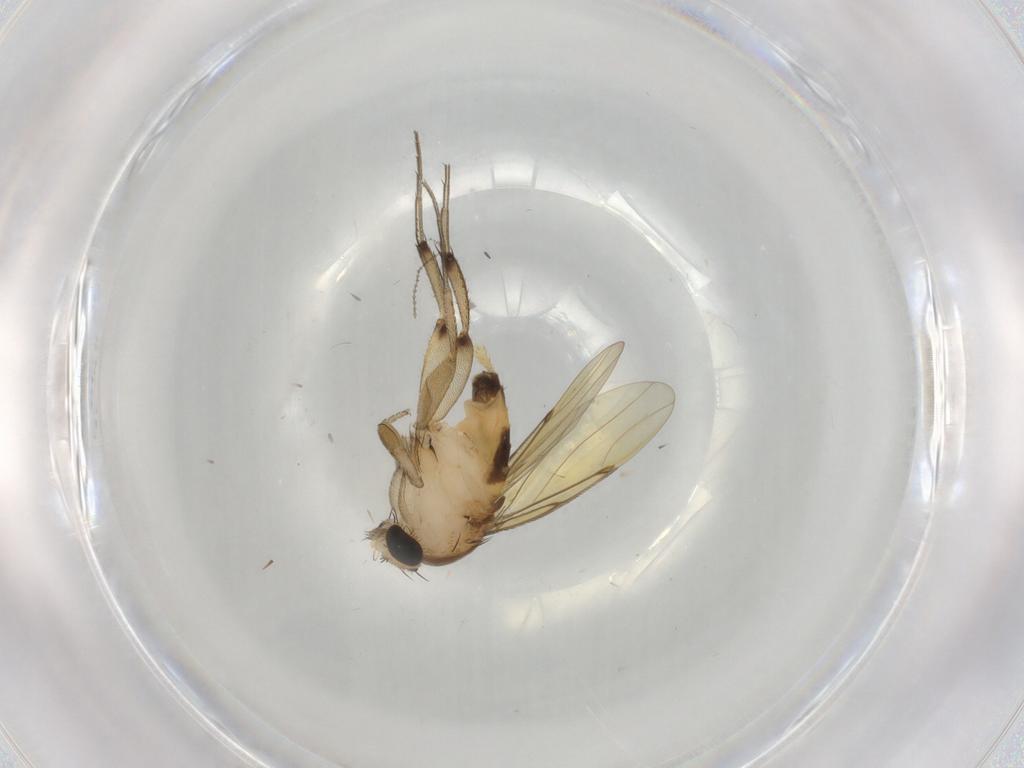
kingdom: Animalia
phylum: Arthropoda
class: Insecta
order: Diptera
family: Phoridae
